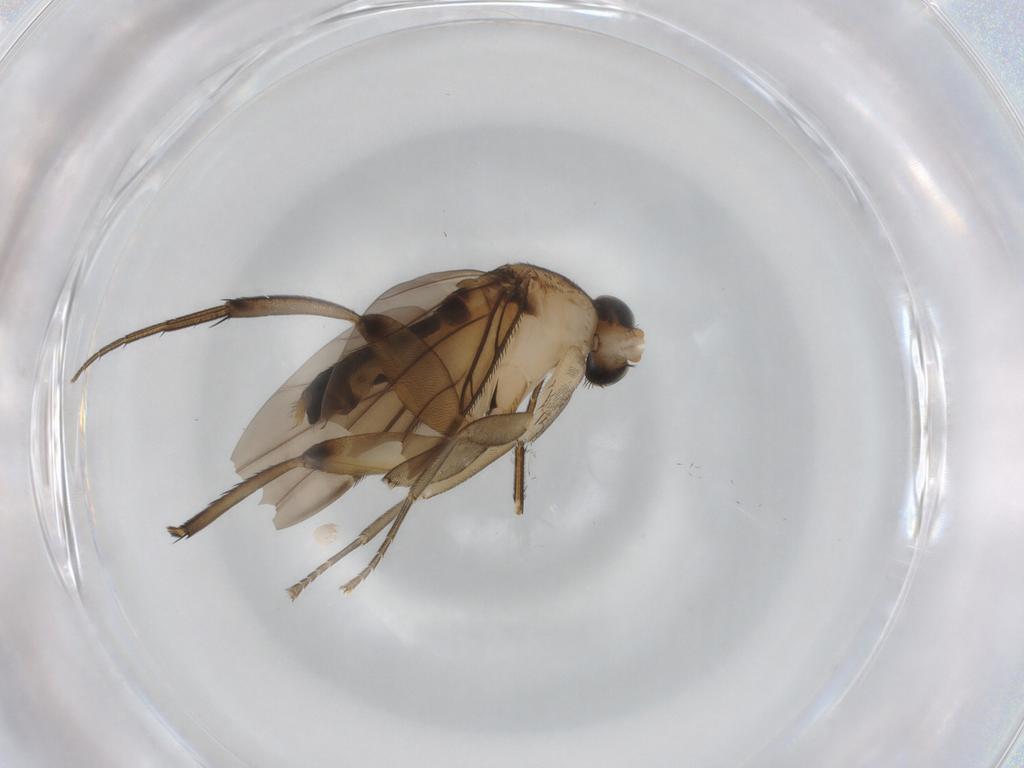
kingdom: Animalia
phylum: Arthropoda
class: Insecta
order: Diptera
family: Phoridae
